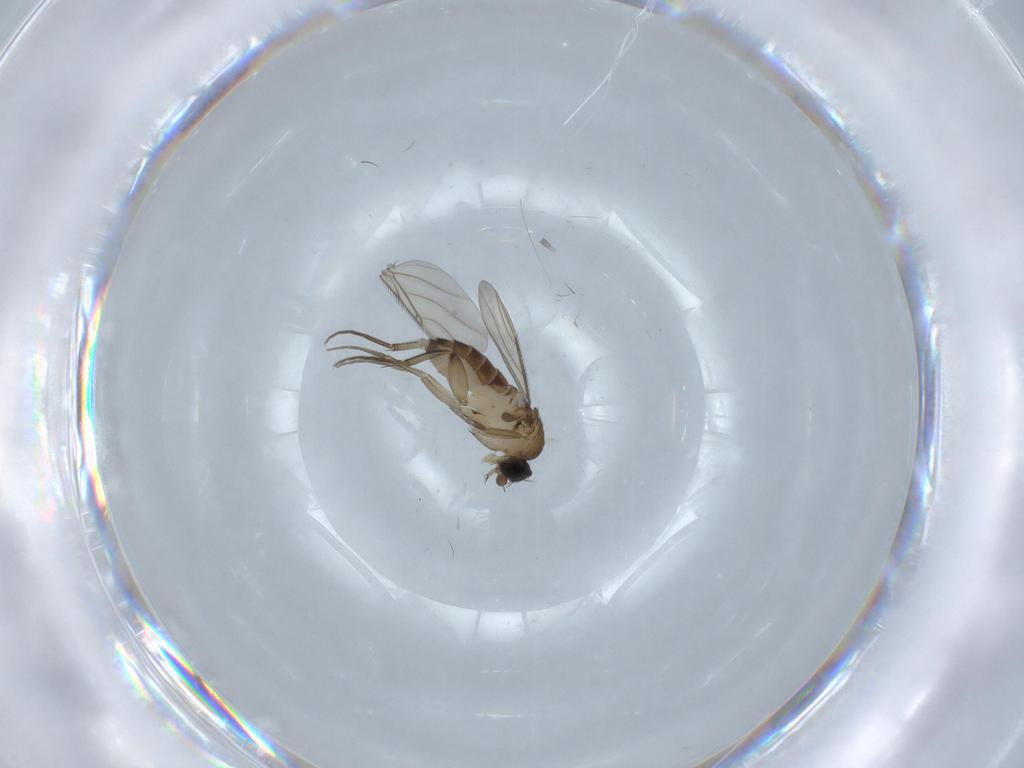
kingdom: Animalia
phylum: Arthropoda
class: Insecta
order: Diptera
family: Phoridae
